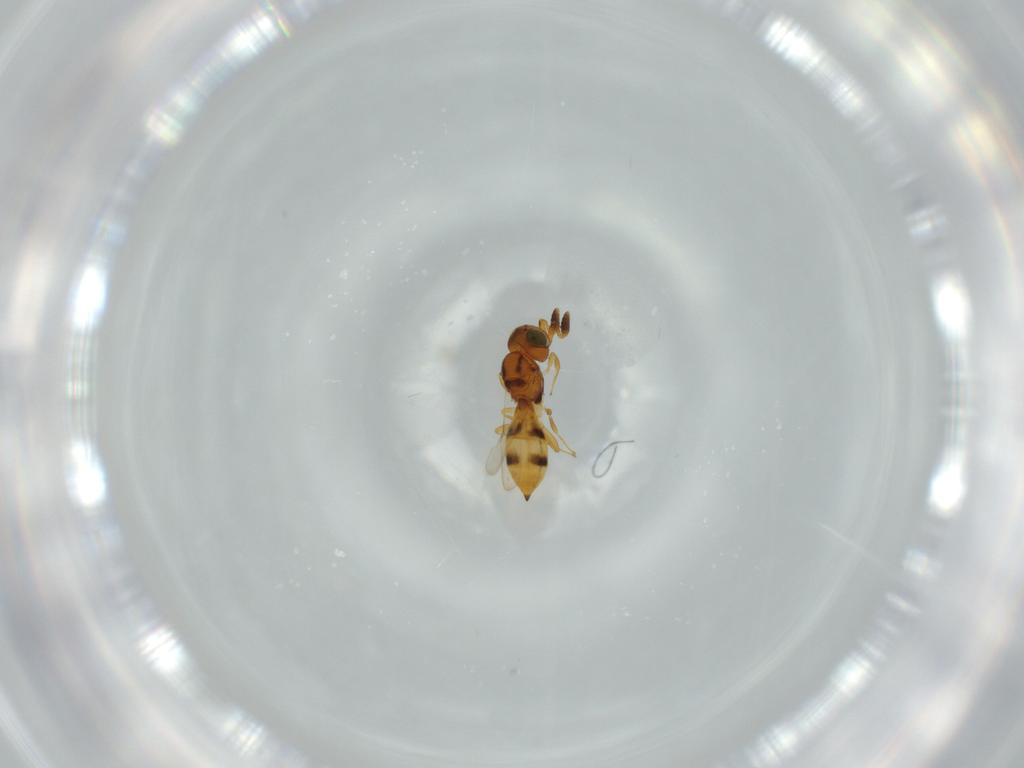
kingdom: Animalia
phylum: Arthropoda
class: Insecta
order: Hymenoptera
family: Scelionidae
